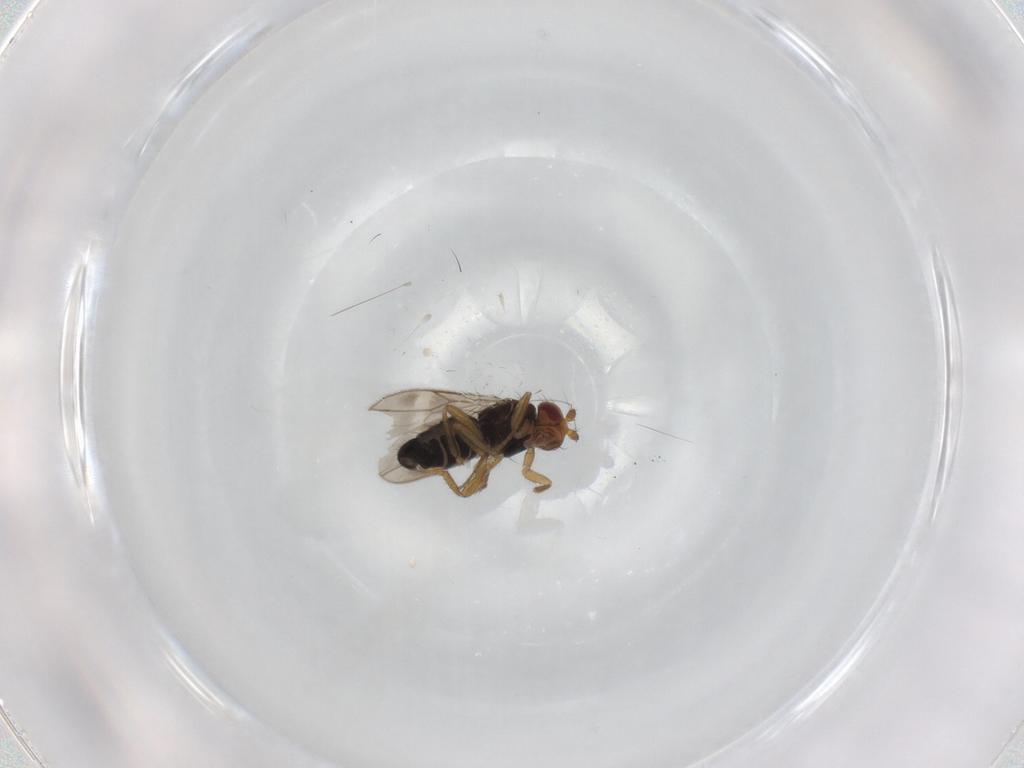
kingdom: Animalia
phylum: Arthropoda
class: Insecta
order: Diptera
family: Sphaeroceridae
